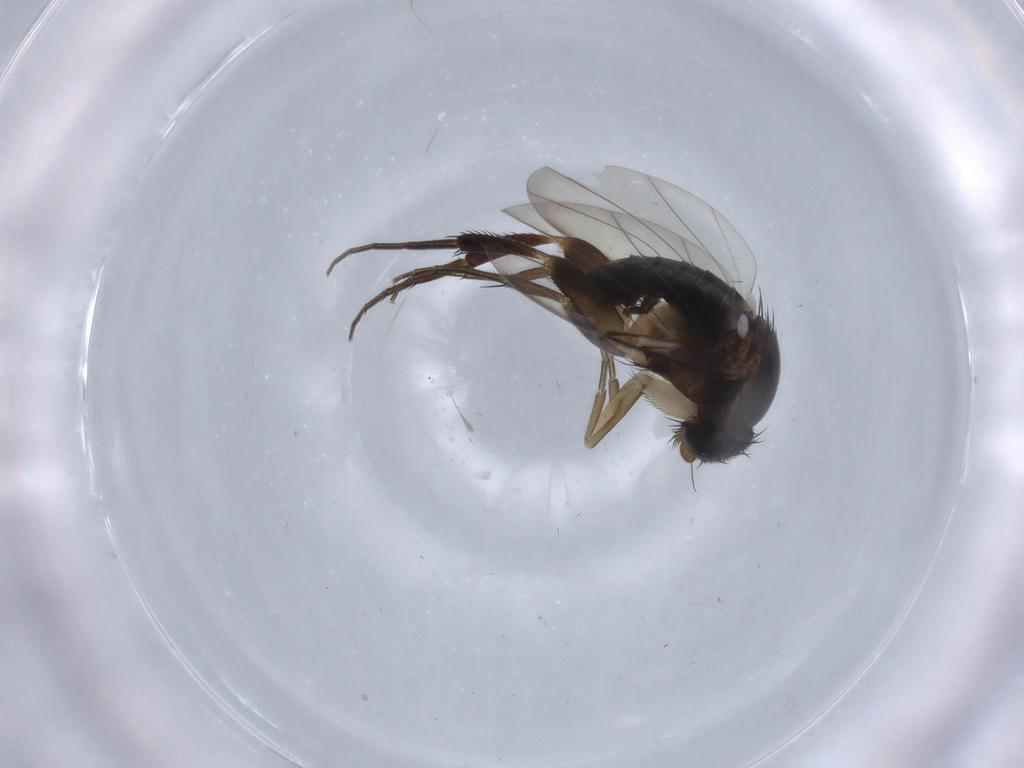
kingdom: Animalia
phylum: Arthropoda
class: Insecta
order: Diptera
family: Phoridae
